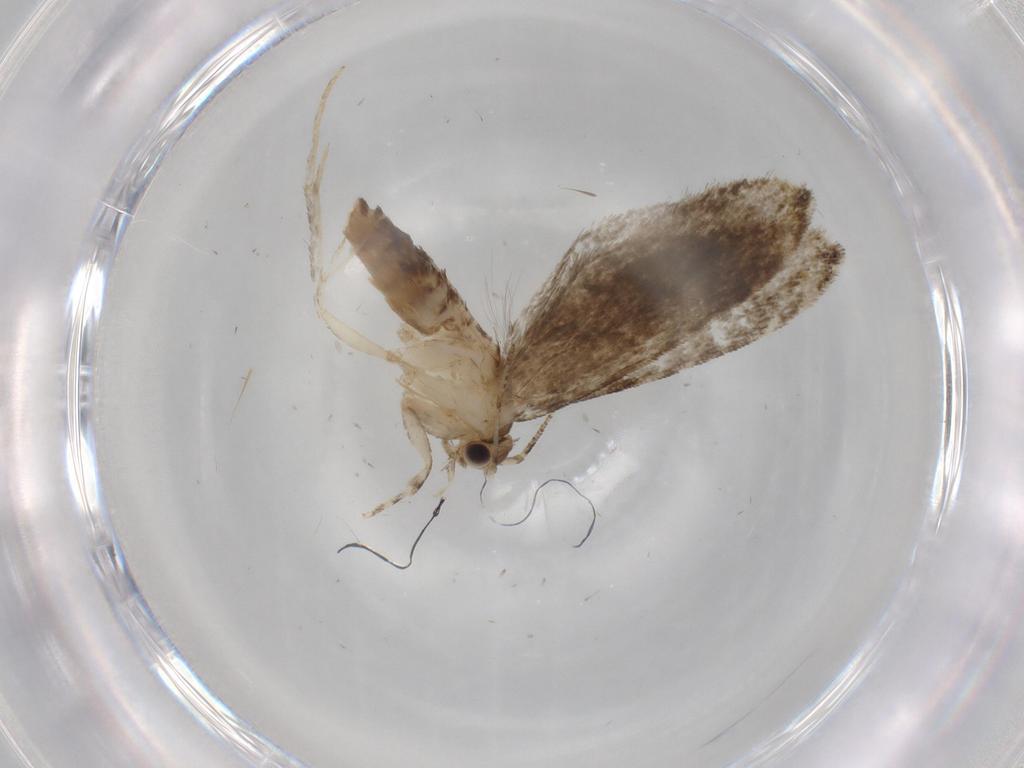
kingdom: Animalia
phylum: Arthropoda
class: Insecta
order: Lepidoptera
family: Tineidae
